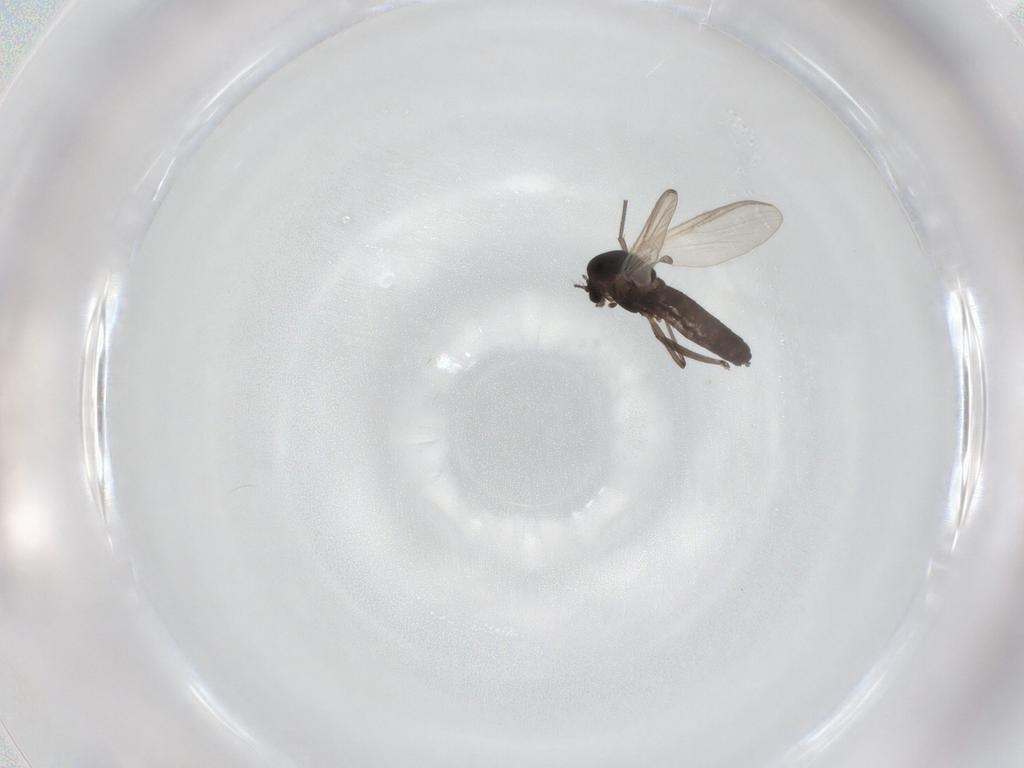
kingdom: Animalia
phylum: Arthropoda
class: Insecta
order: Diptera
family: Sciaridae
